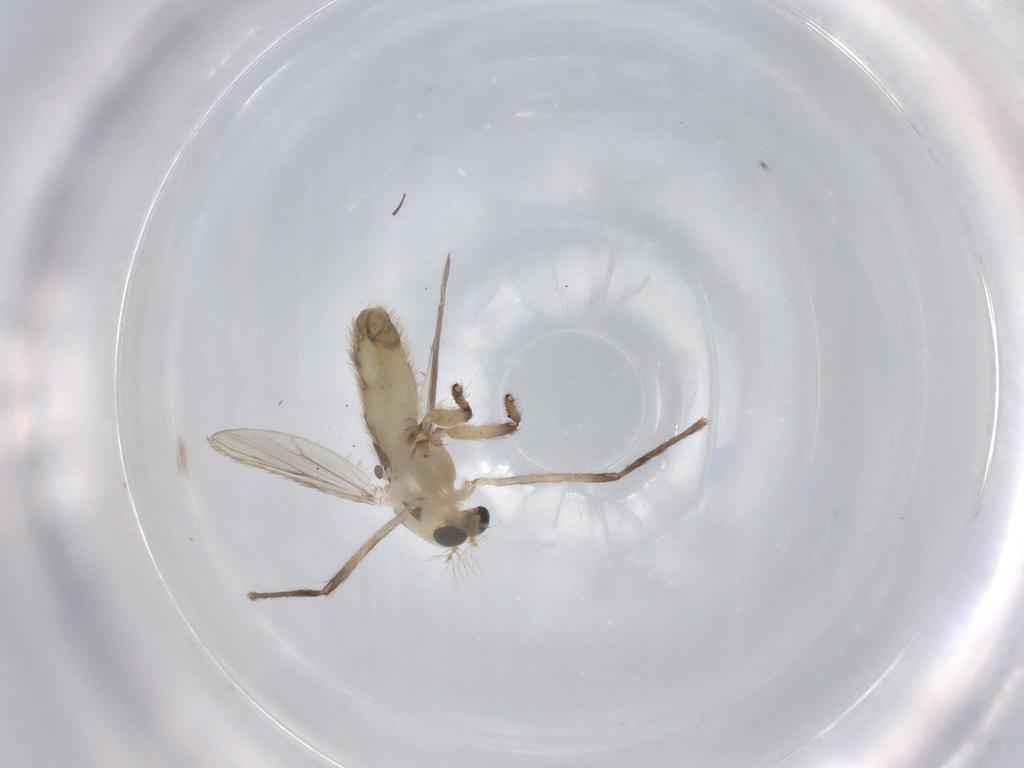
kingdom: Animalia
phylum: Arthropoda
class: Insecta
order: Diptera
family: Chironomidae
